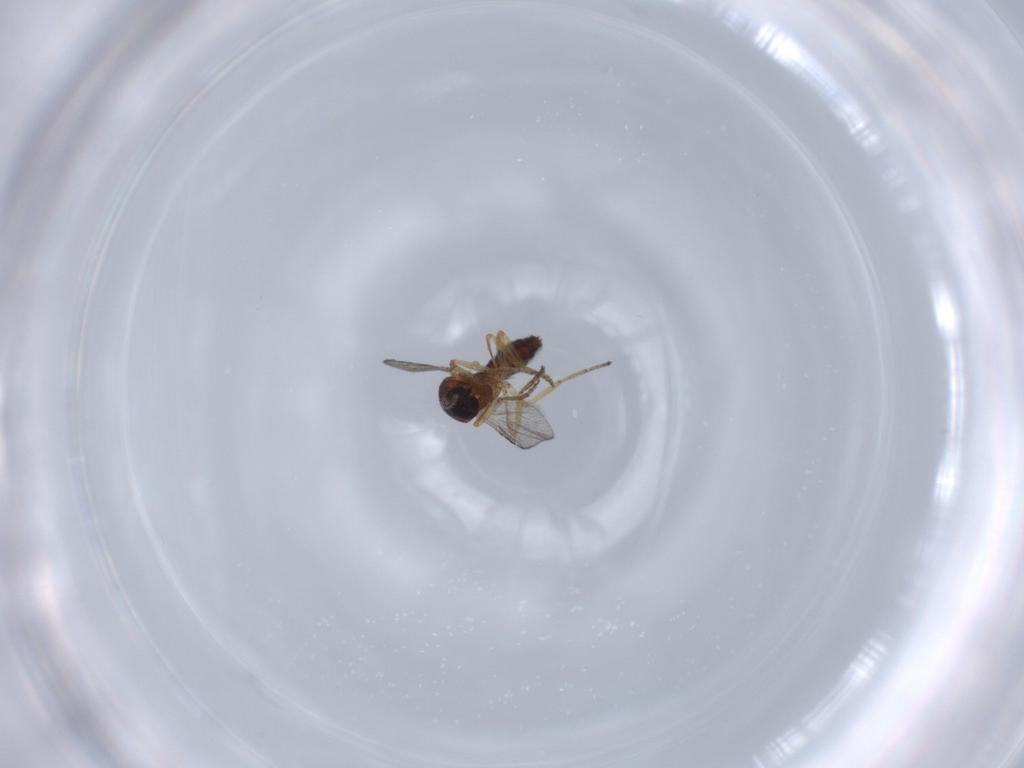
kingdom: Animalia
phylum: Arthropoda
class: Insecta
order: Diptera
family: Ceratopogonidae
